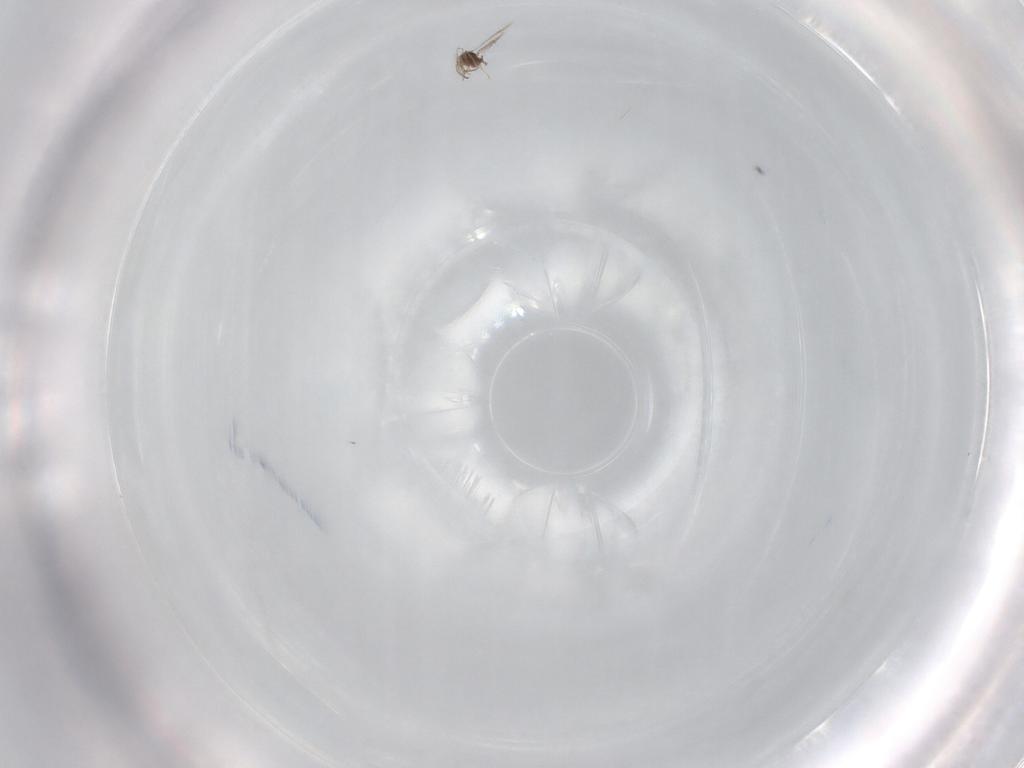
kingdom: Animalia
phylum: Arthropoda
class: Insecta
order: Hymenoptera
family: Mymaridae
